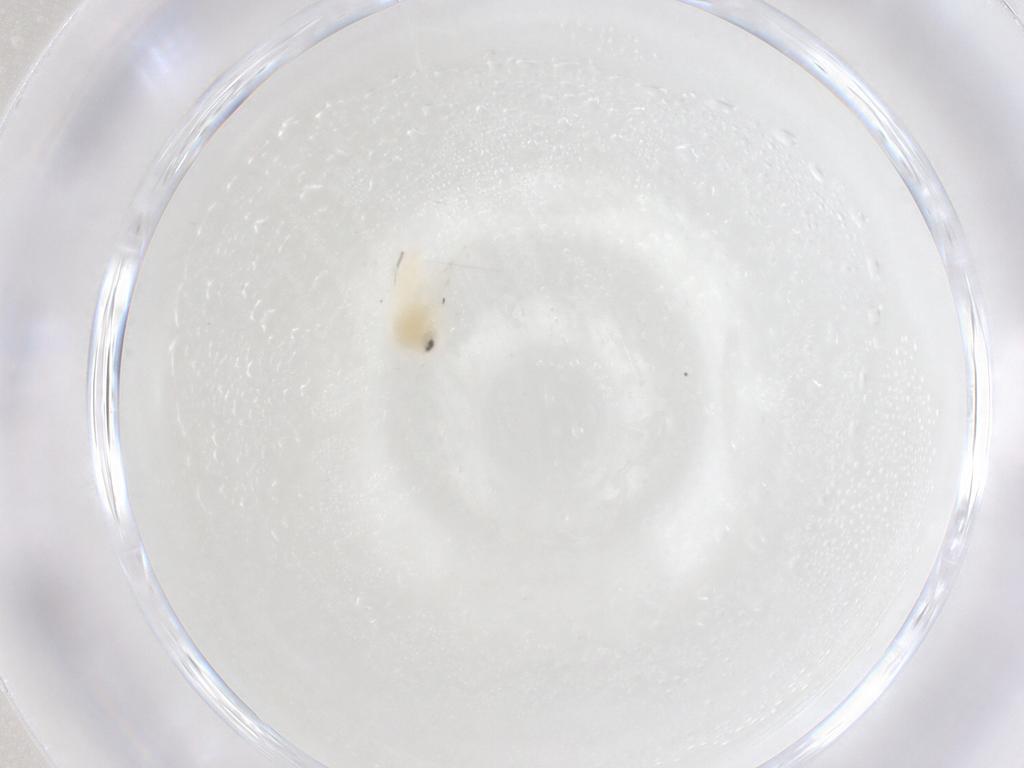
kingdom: Animalia
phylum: Arthropoda
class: Insecta
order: Hemiptera
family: Aleyrodidae
